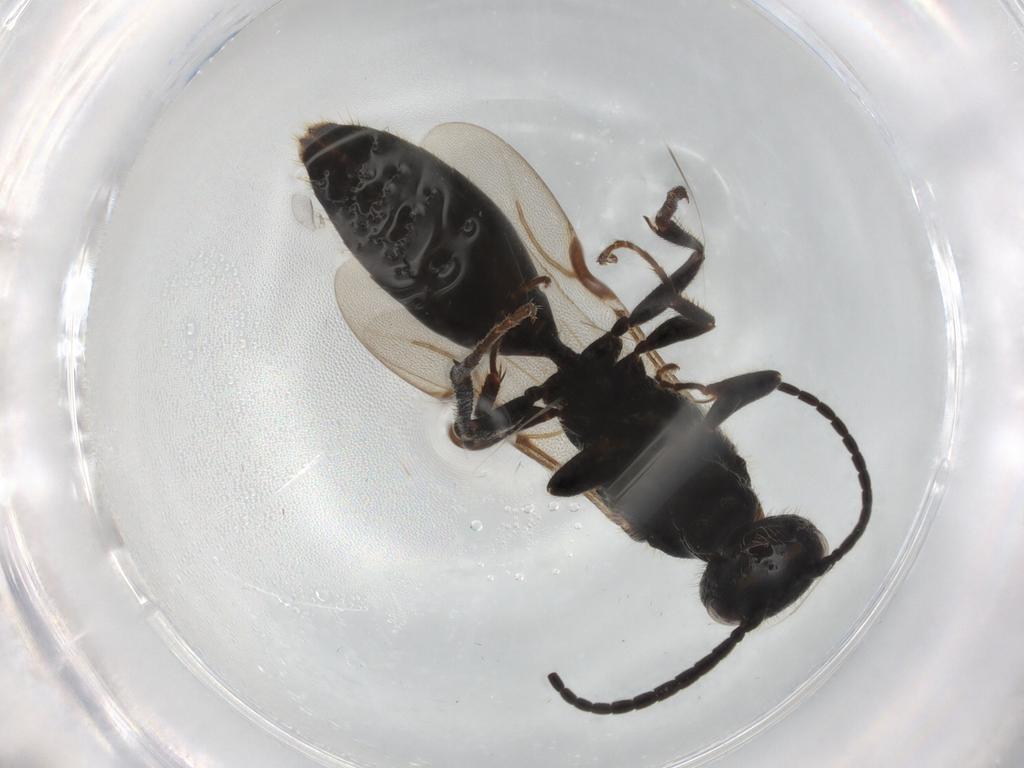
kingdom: Animalia
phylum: Arthropoda
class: Insecta
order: Hymenoptera
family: Bethylidae
